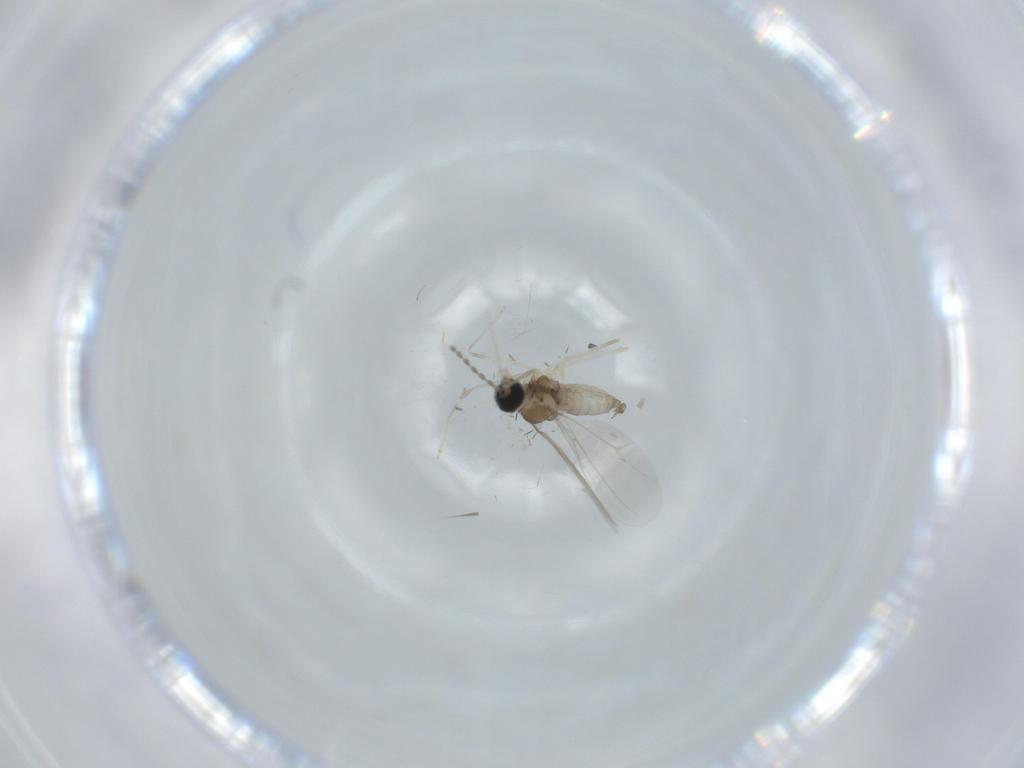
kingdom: Animalia
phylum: Arthropoda
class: Insecta
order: Diptera
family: Cecidomyiidae
